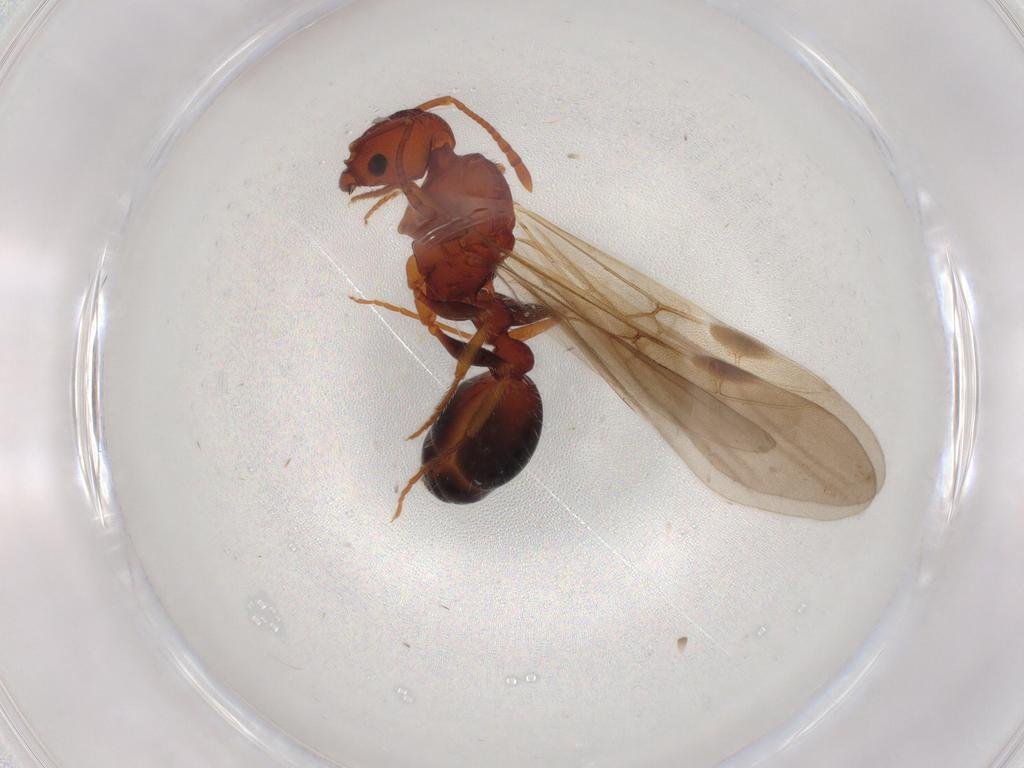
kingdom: Animalia
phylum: Arthropoda
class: Insecta
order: Hymenoptera
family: Formicidae
